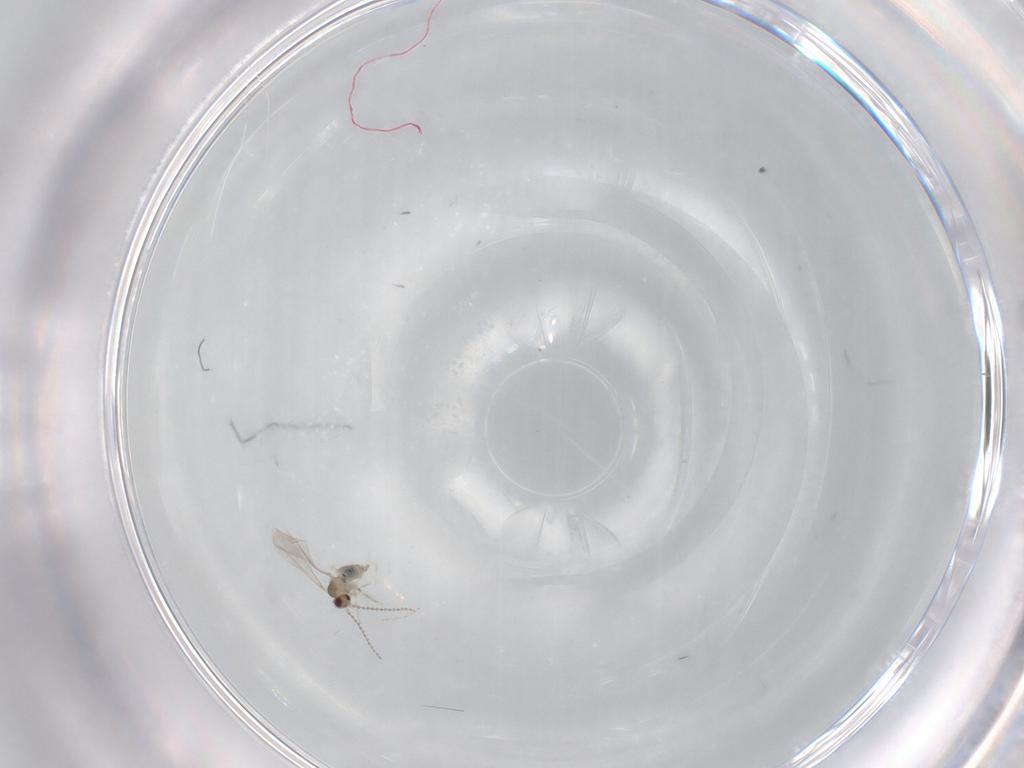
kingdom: Animalia
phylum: Arthropoda
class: Insecta
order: Diptera
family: Cecidomyiidae
